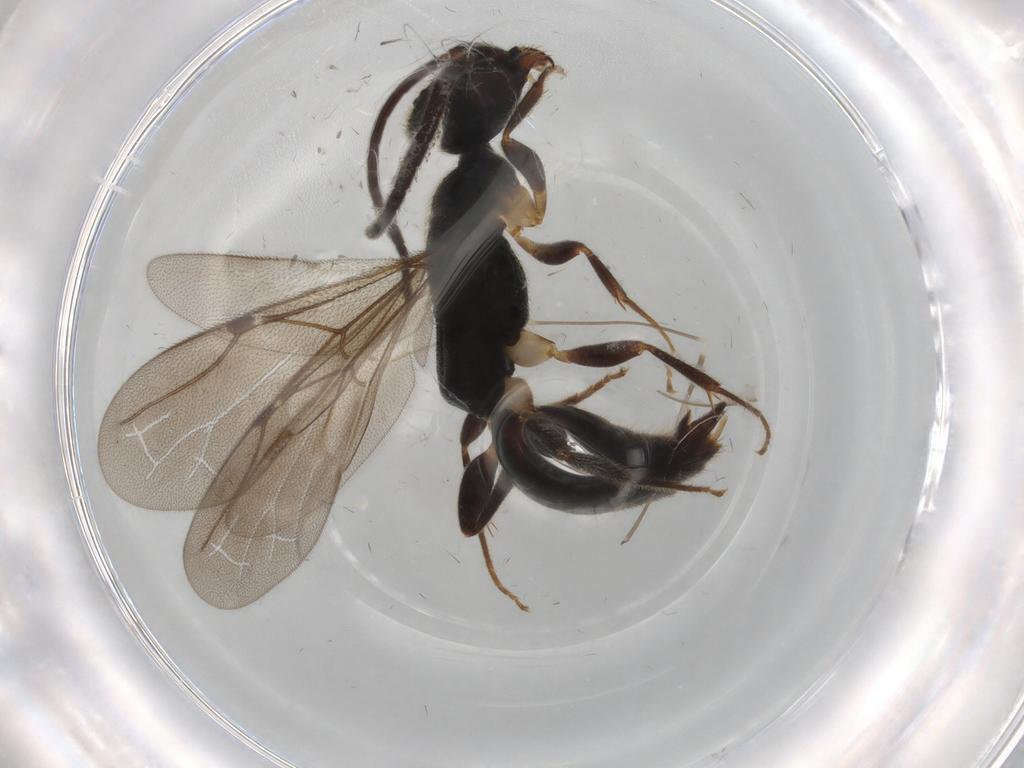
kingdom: Animalia
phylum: Arthropoda
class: Insecta
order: Hymenoptera
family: Bethylidae
